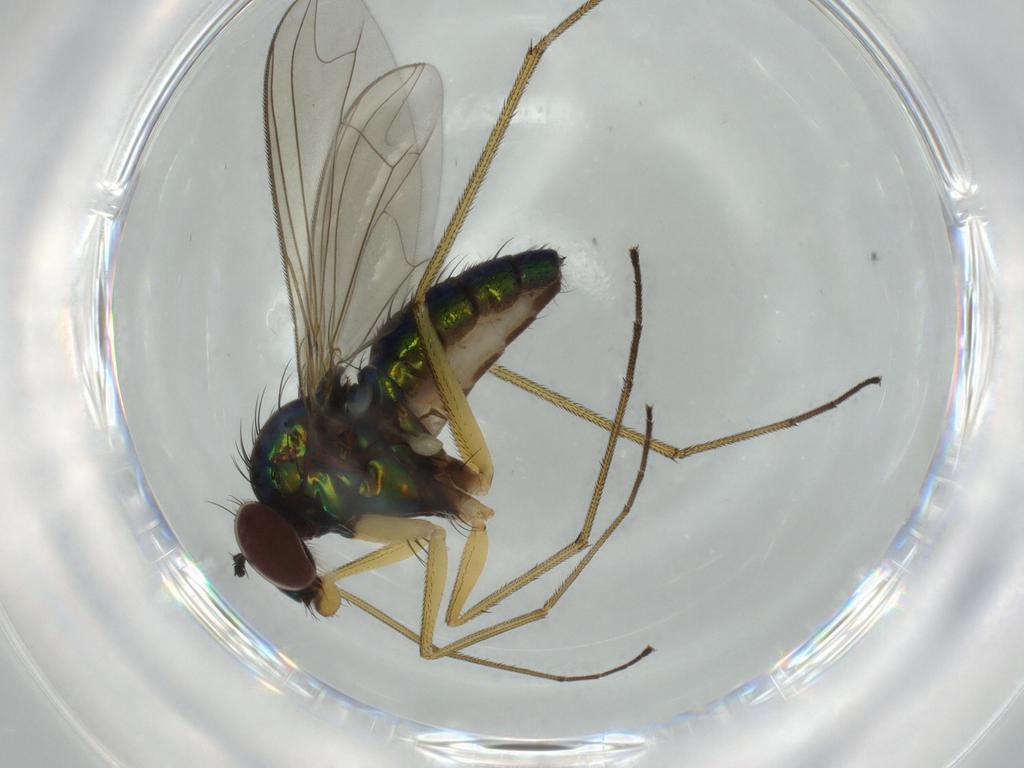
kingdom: Animalia
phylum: Arthropoda
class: Insecta
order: Diptera
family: Dolichopodidae
